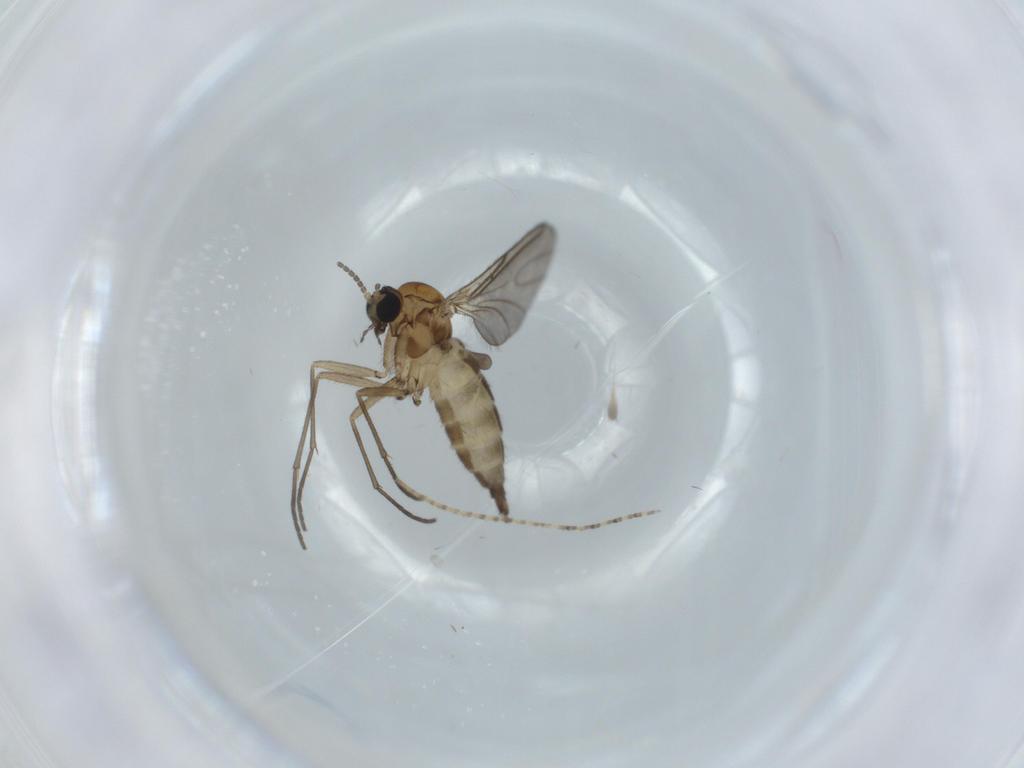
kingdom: Animalia
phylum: Arthropoda
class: Insecta
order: Diptera
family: Sciaridae
